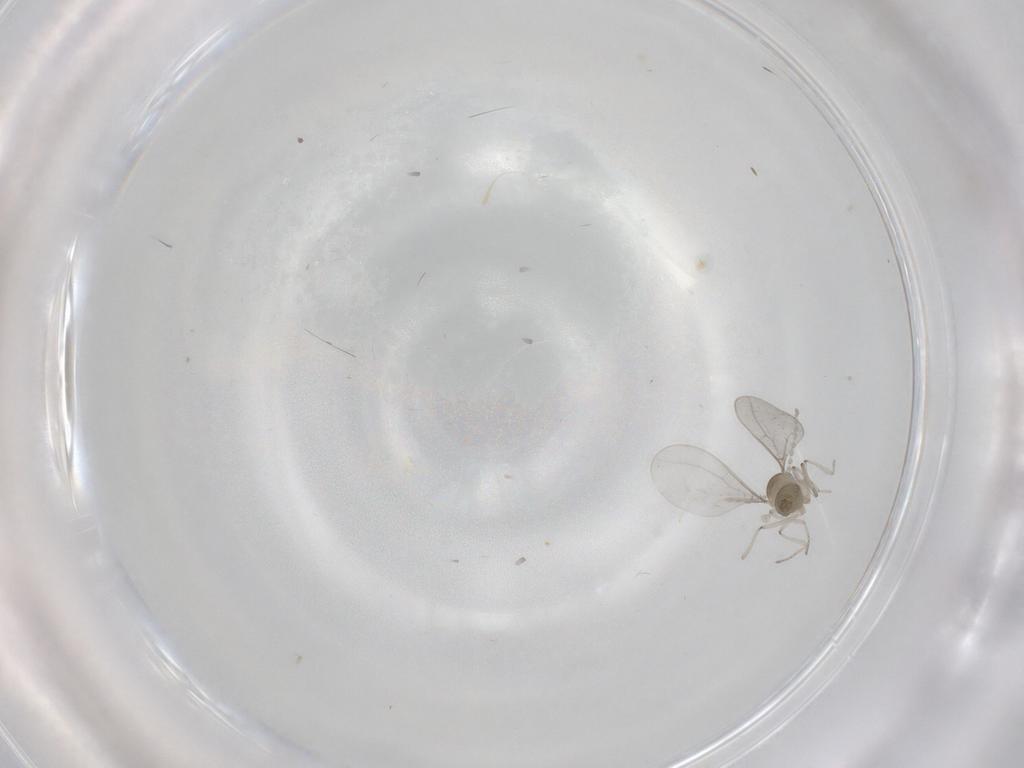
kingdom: Animalia
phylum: Arthropoda
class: Insecta
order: Diptera
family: Cecidomyiidae
